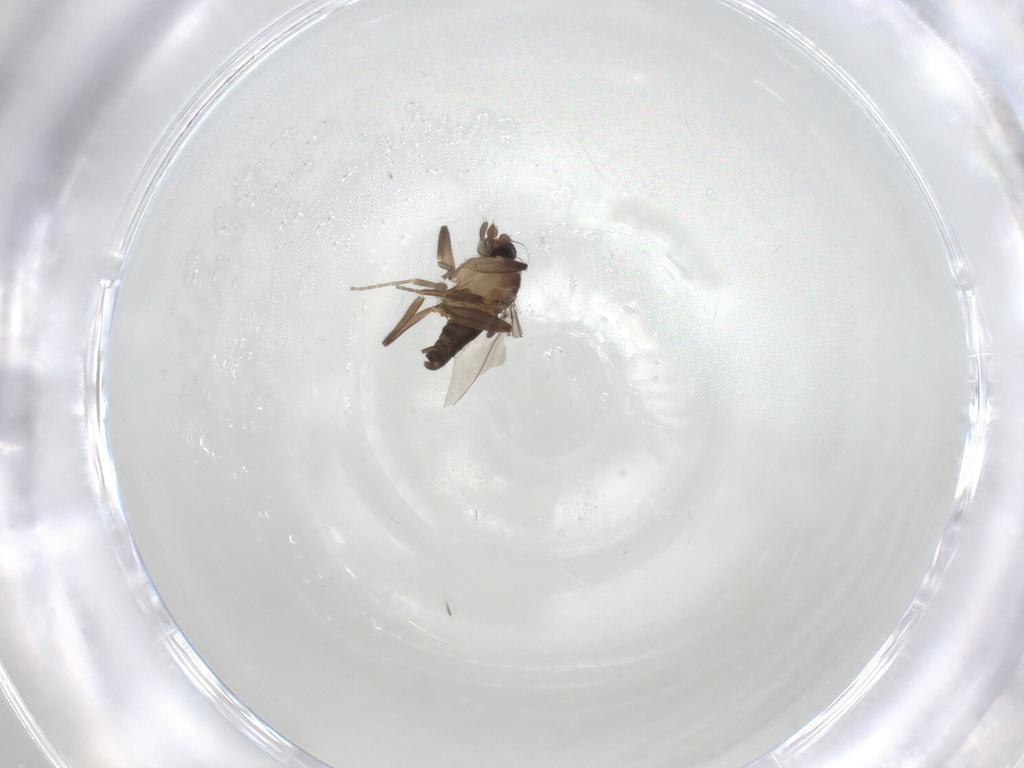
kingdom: Animalia
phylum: Arthropoda
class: Insecta
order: Diptera
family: Phoridae
